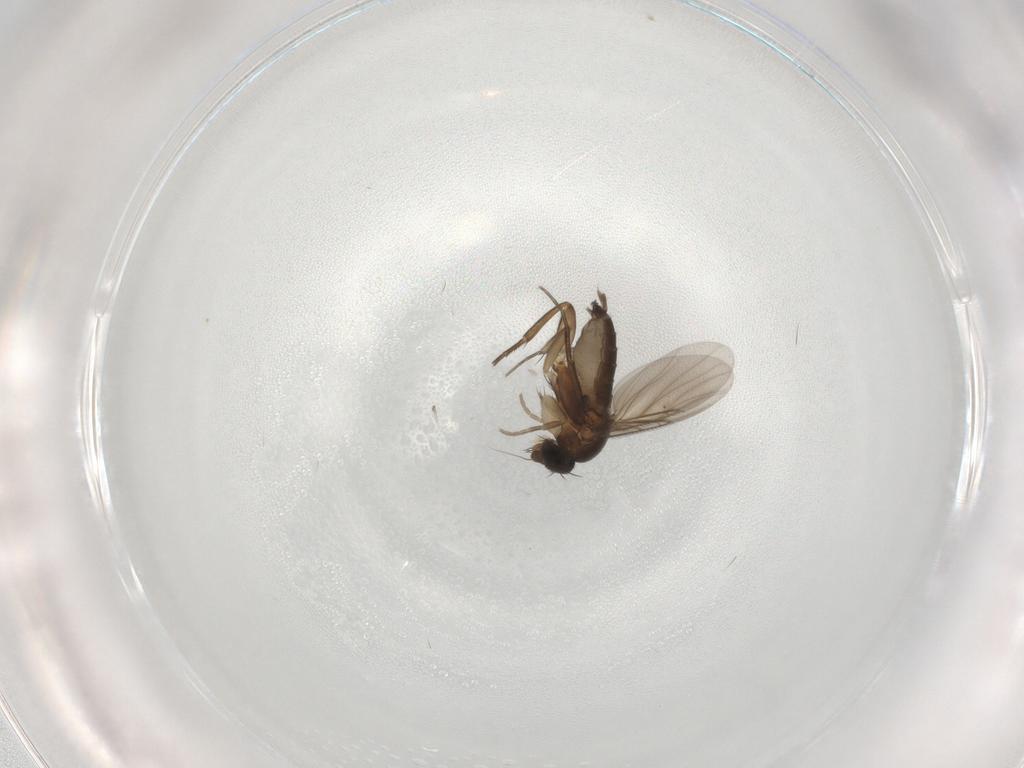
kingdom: Animalia
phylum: Arthropoda
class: Insecta
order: Diptera
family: Phoridae
